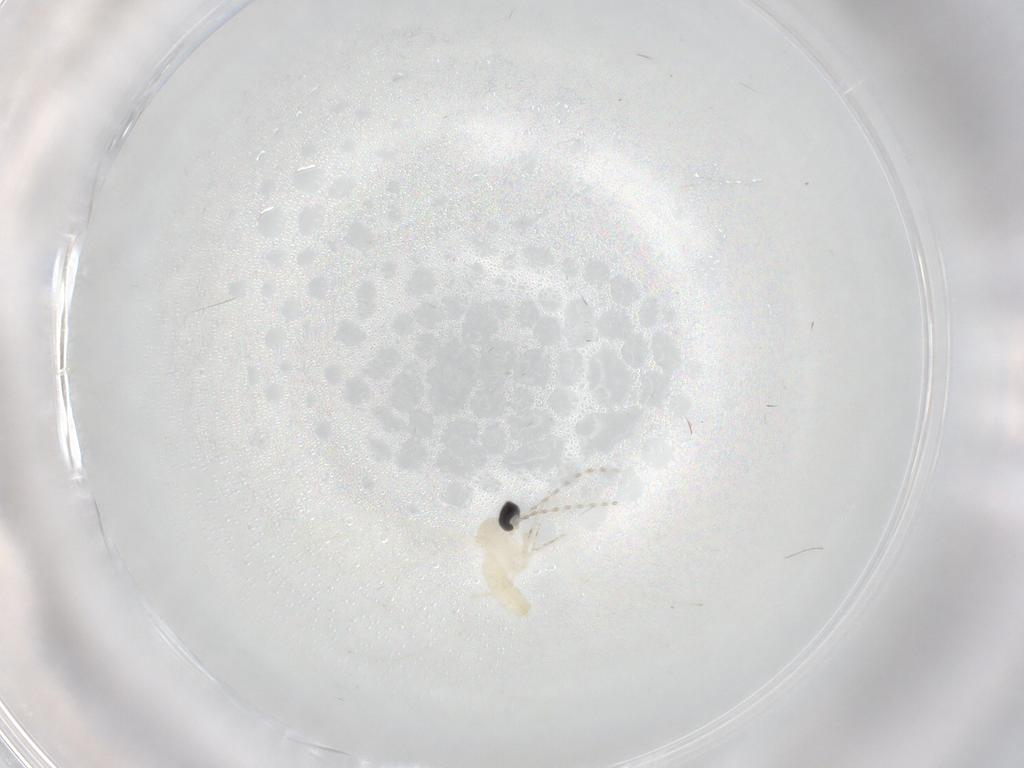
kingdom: Animalia
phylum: Arthropoda
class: Insecta
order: Diptera
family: Cecidomyiidae
